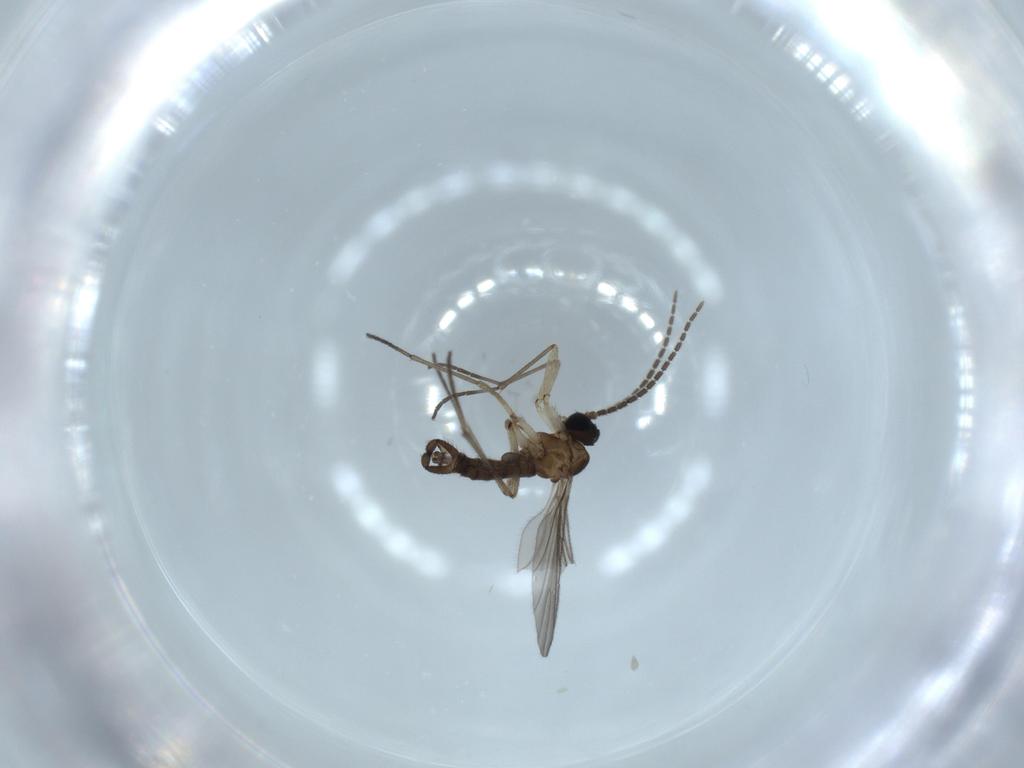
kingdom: Animalia
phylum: Arthropoda
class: Insecta
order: Diptera
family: Sciaridae
